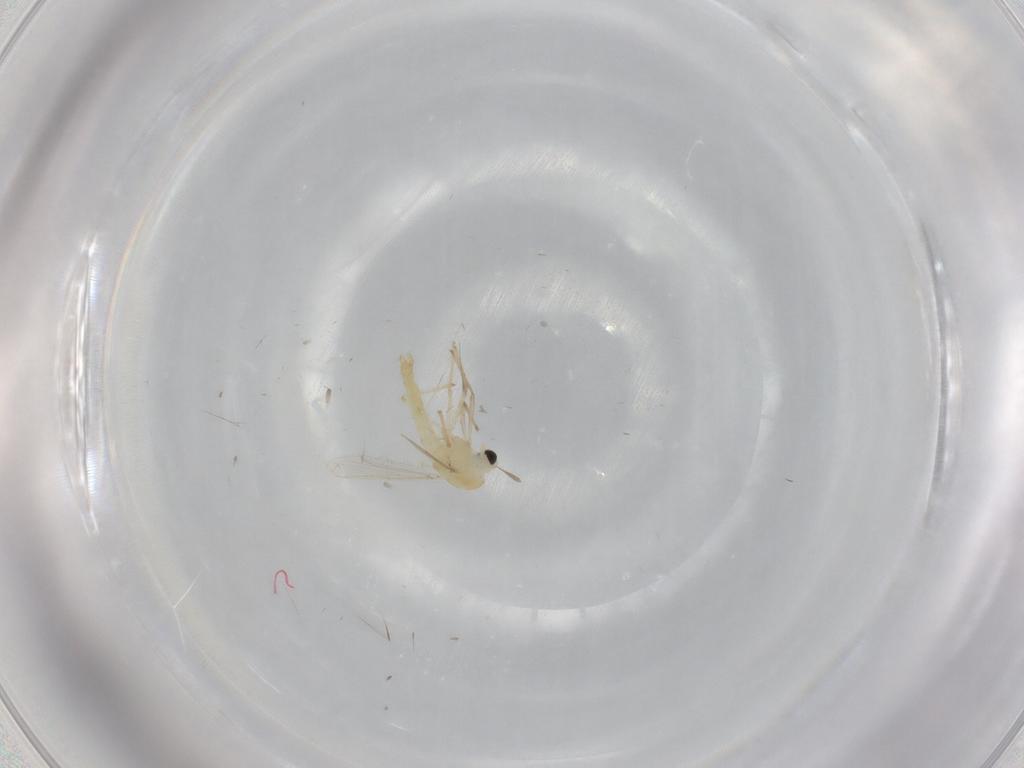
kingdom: Animalia
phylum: Arthropoda
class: Insecta
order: Diptera
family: Chironomidae
